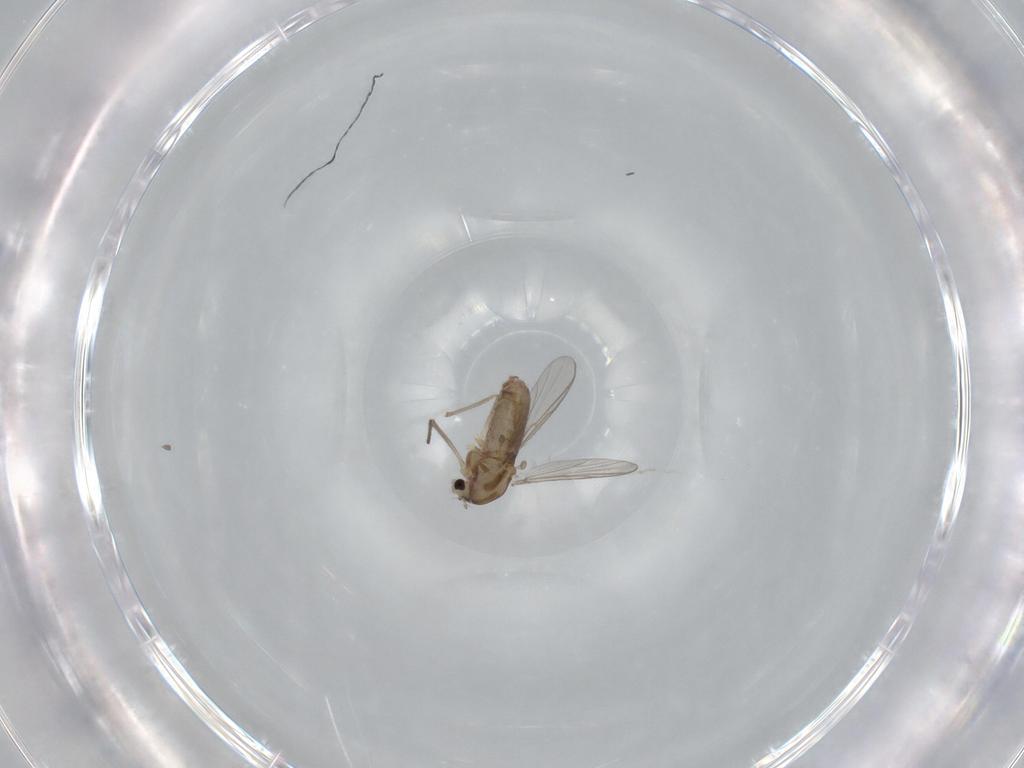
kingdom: Animalia
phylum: Arthropoda
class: Insecta
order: Diptera
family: Chironomidae
